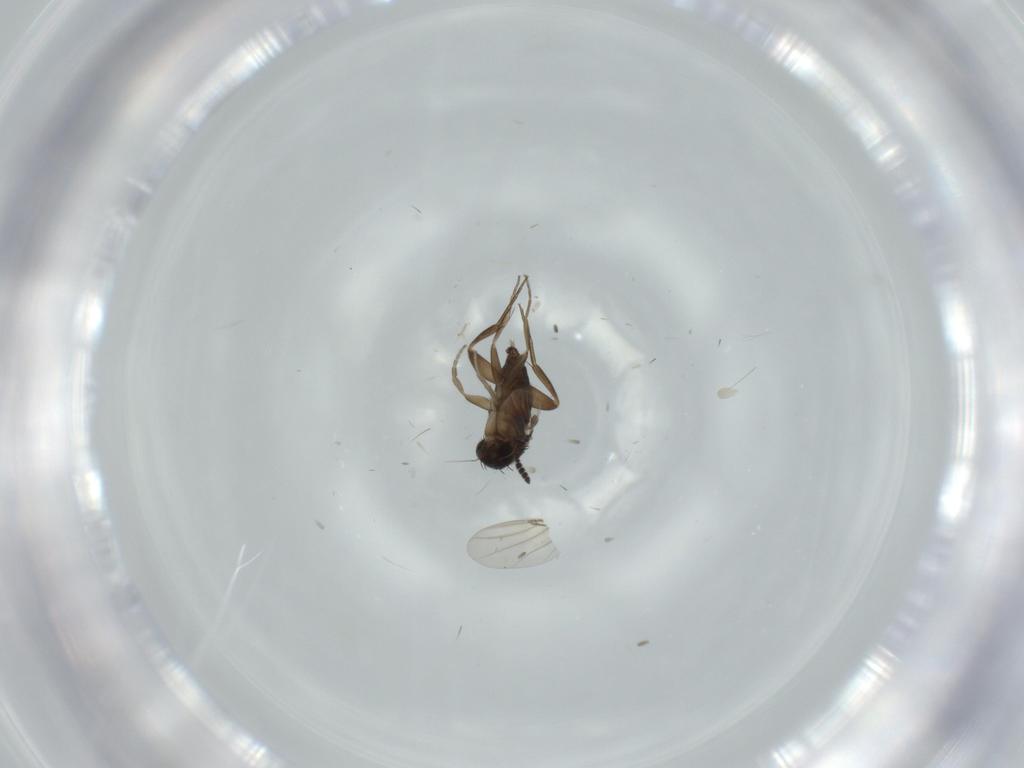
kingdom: Animalia
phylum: Arthropoda
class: Insecta
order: Diptera
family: Phoridae
